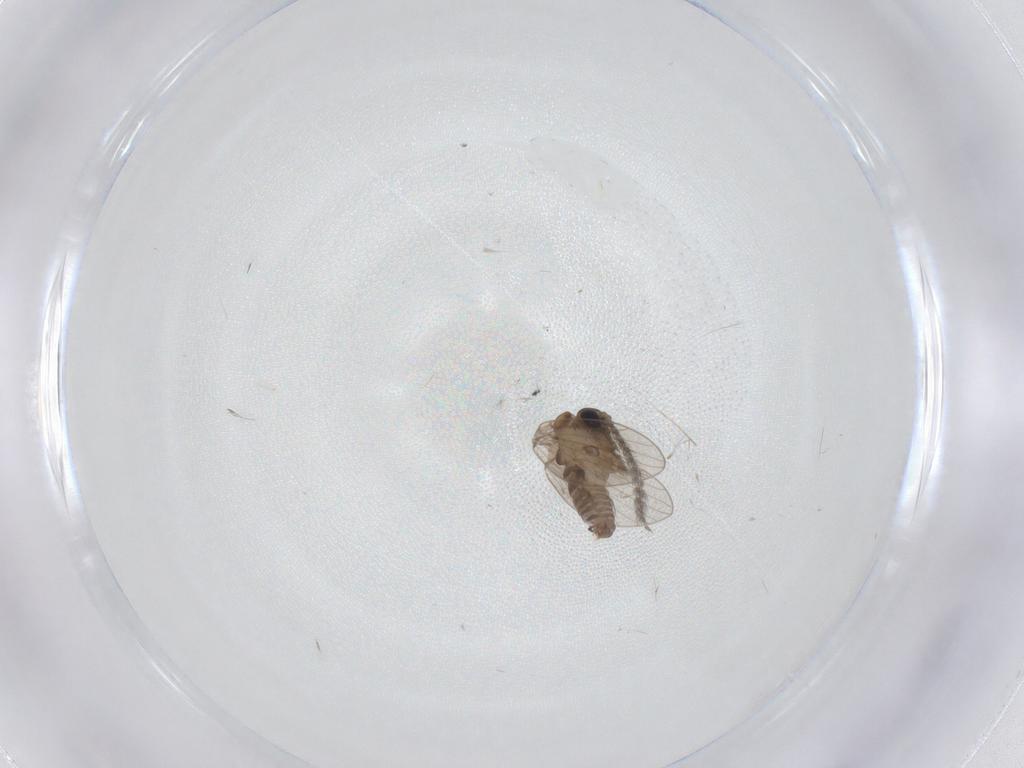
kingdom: Animalia
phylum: Arthropoda
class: Insecta
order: Diptera
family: Psychodidae
